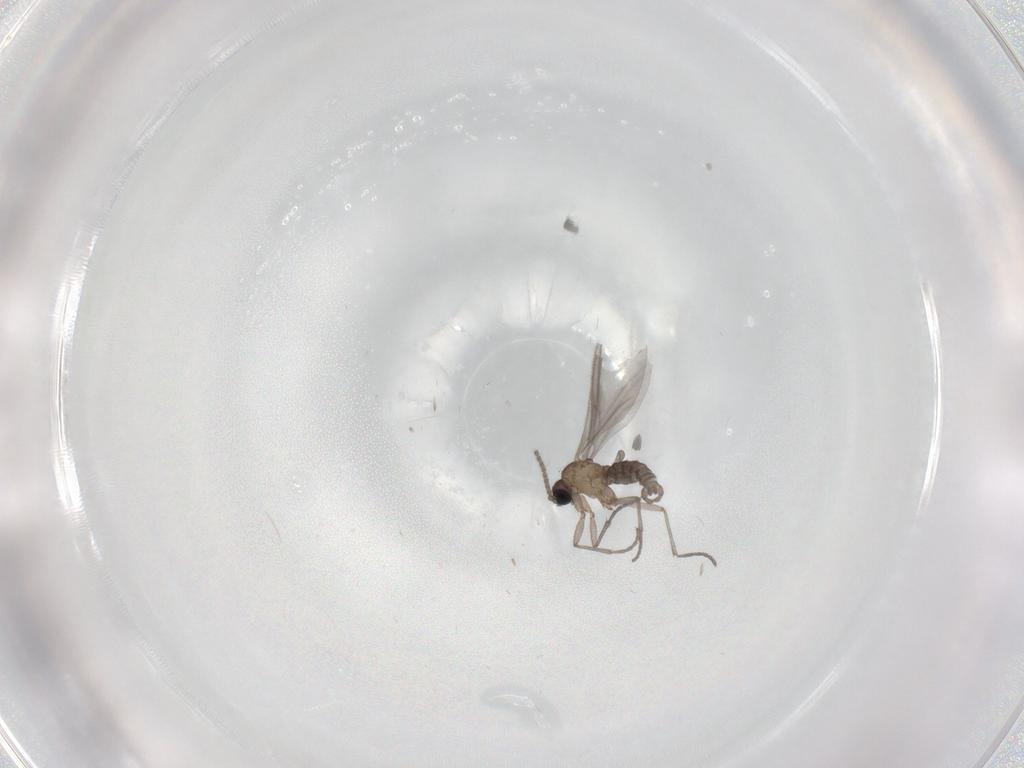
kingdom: Animalia
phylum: Arthropoda
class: Insecta
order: Diptera
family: Sciaridae
